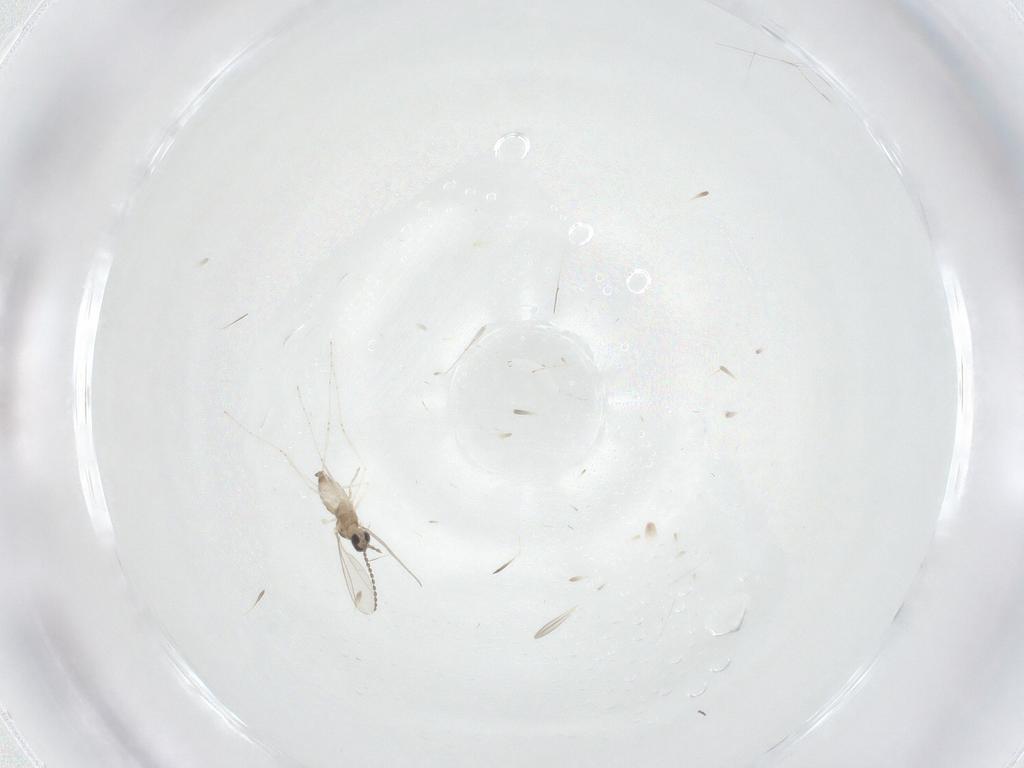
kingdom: Animalia
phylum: Arthropoda
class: Insecta
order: Diptera
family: Cecidomyiidae
